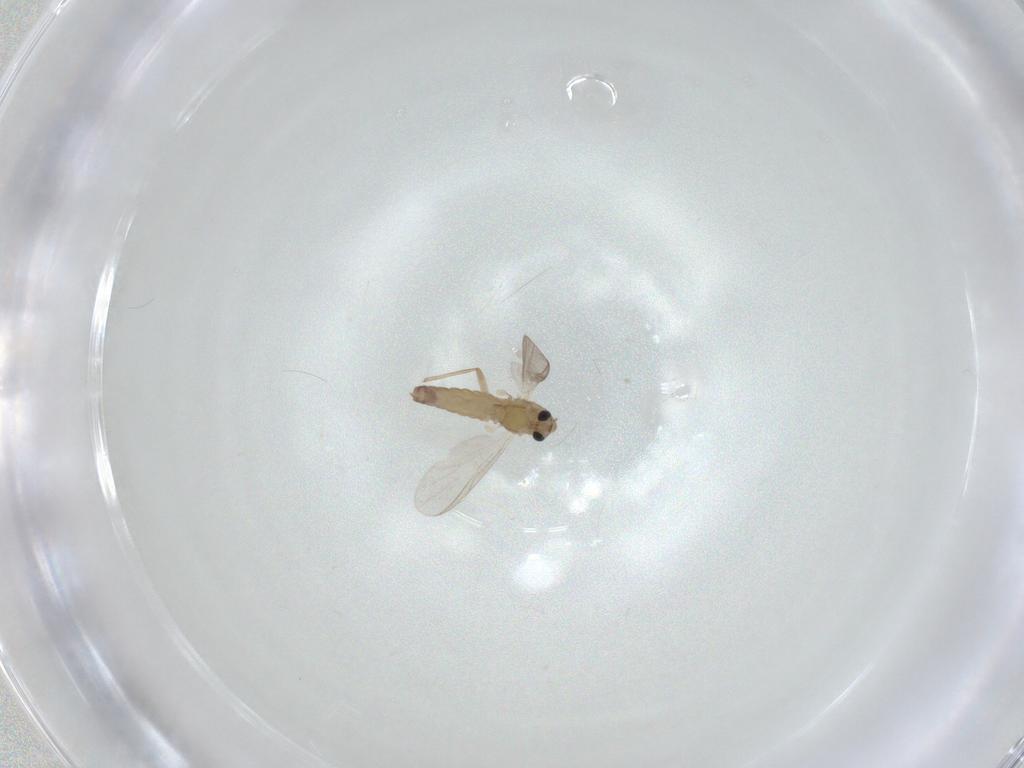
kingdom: Animalia
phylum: Arthropoda
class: Insecta
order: Diptera
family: Chironomidae
